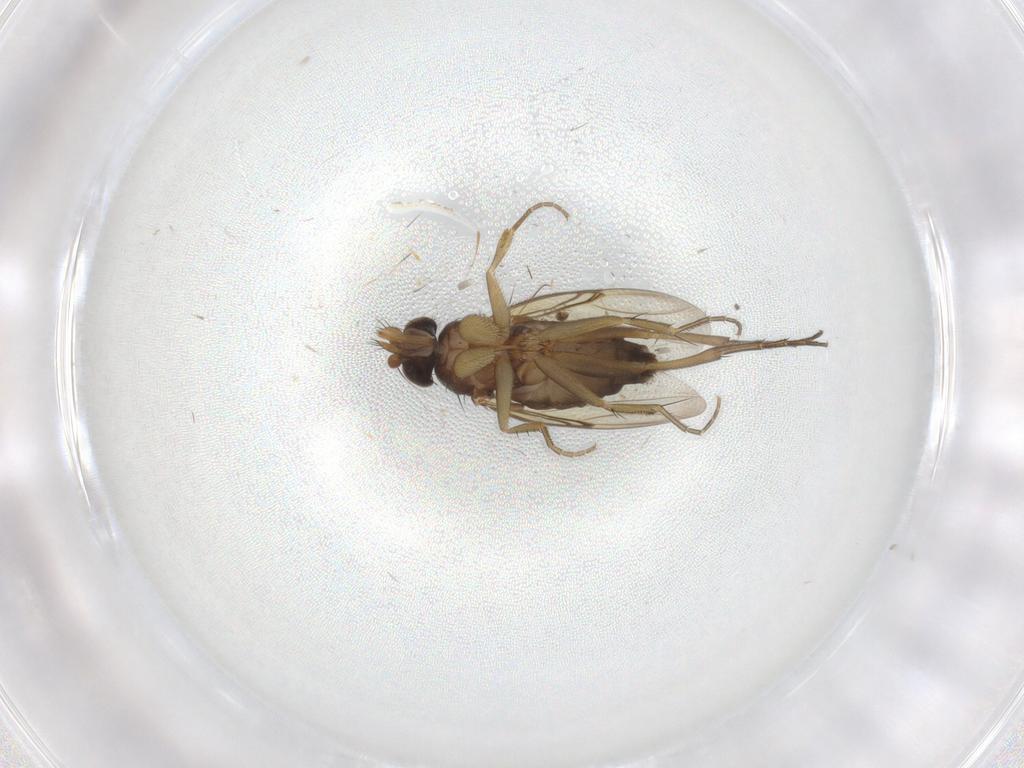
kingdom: Animalia
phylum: Arthropoda
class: Insecta
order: Diptera
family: Phoridae
